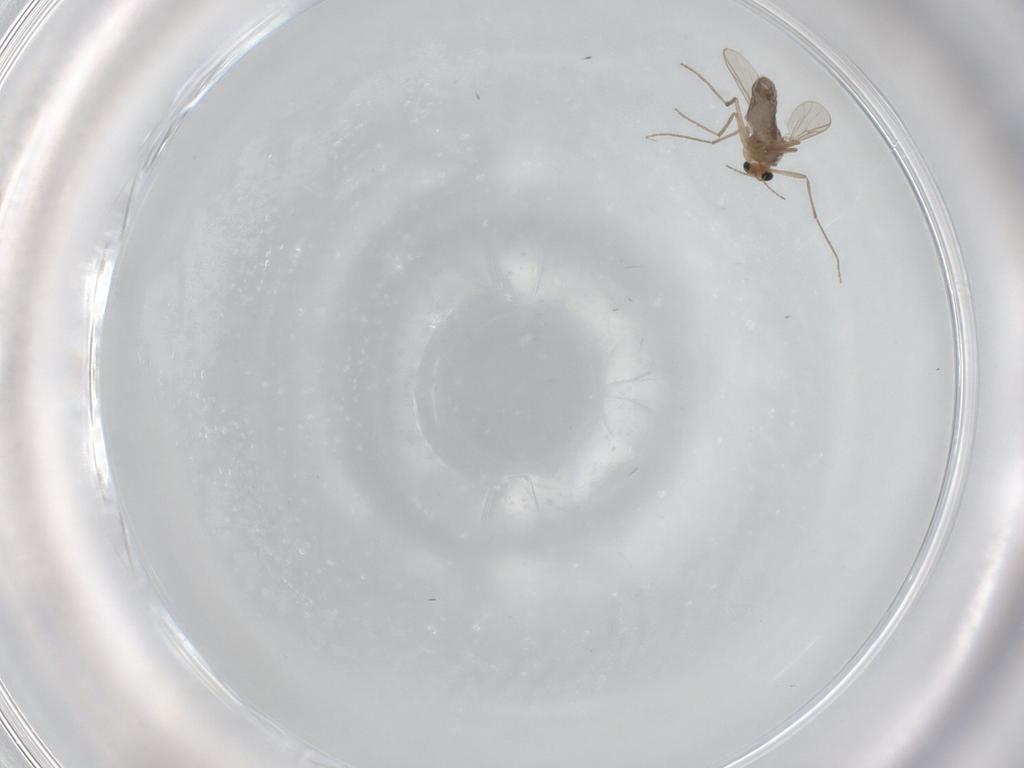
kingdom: Animalia
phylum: Arthropoda
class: Insecta
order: Diptera
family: Chironomidae
